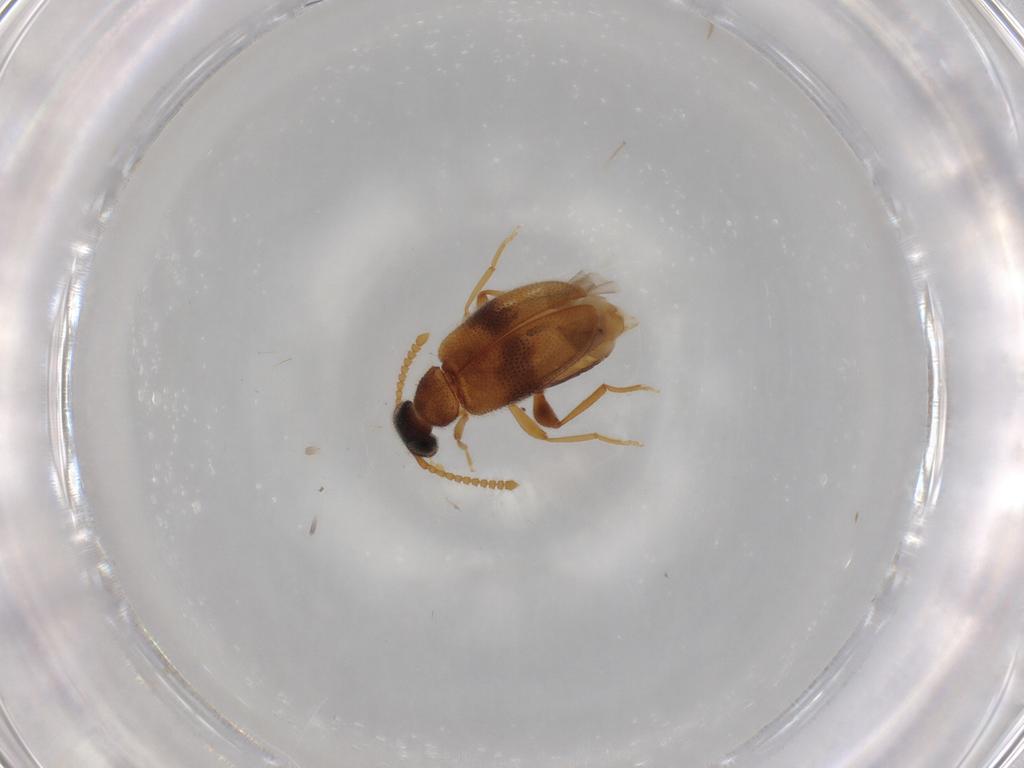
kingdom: Animalia
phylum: Arthropoda
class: Insecta
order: Coleoptera
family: Aderidae
